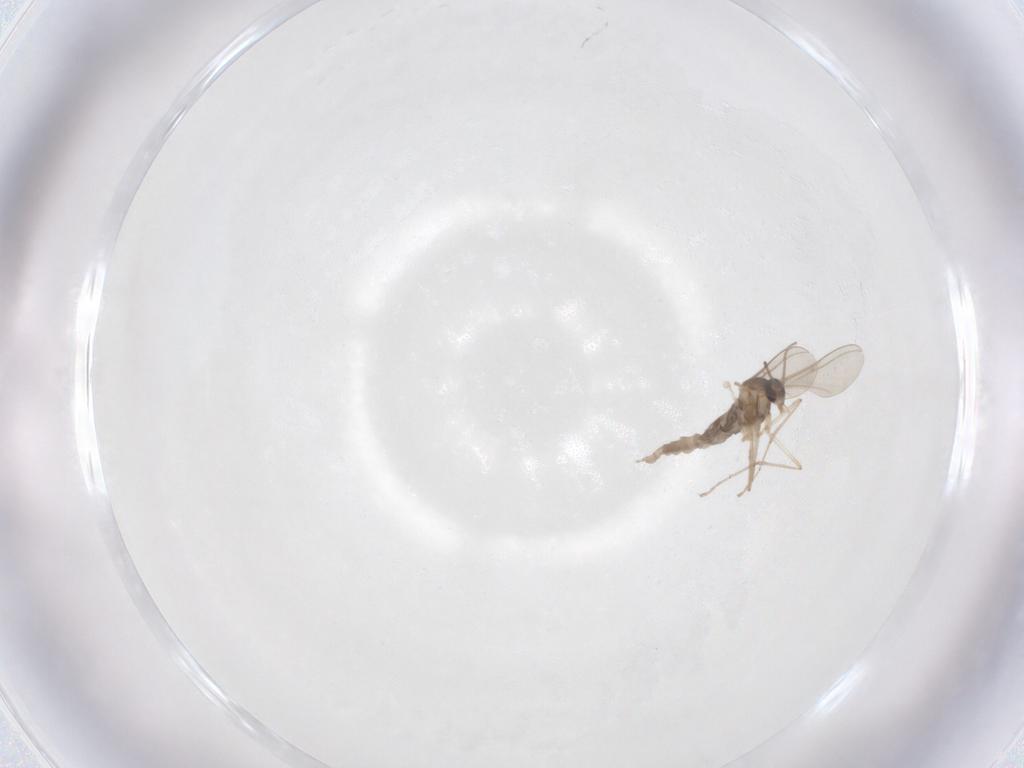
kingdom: Animalia
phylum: Arthropoda
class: Insecta
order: Diptera
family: Cecidomyiidae
